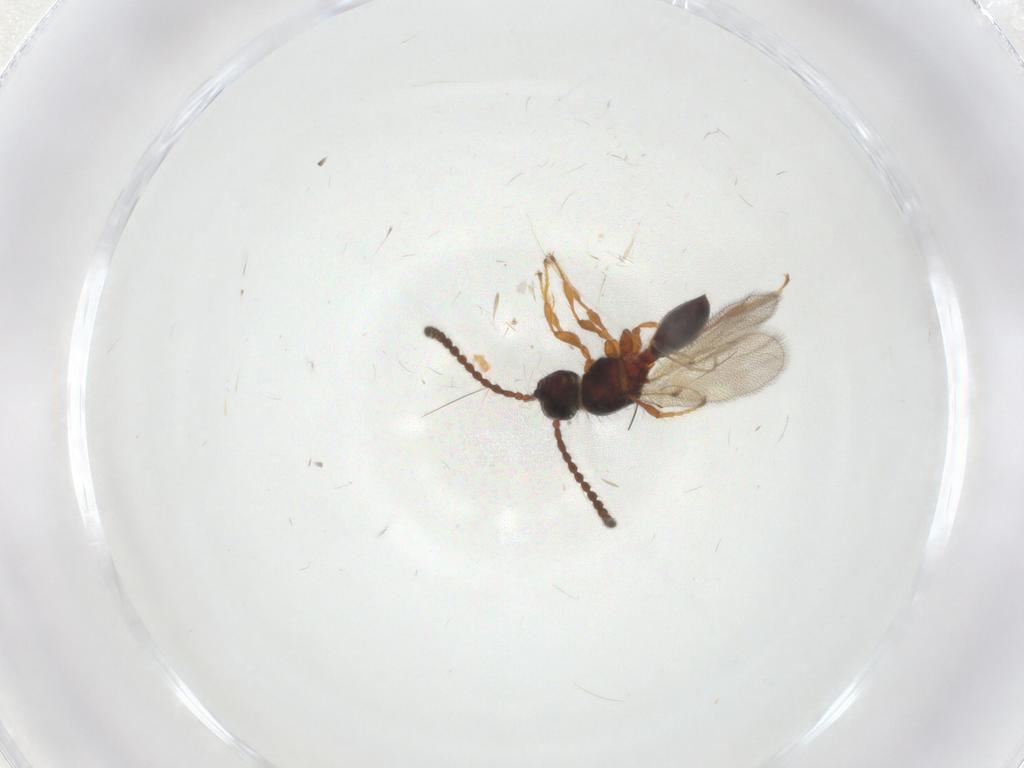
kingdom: Animalia
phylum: Arthropoda
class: Insecta
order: Hymenoptera
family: Diapriidae
